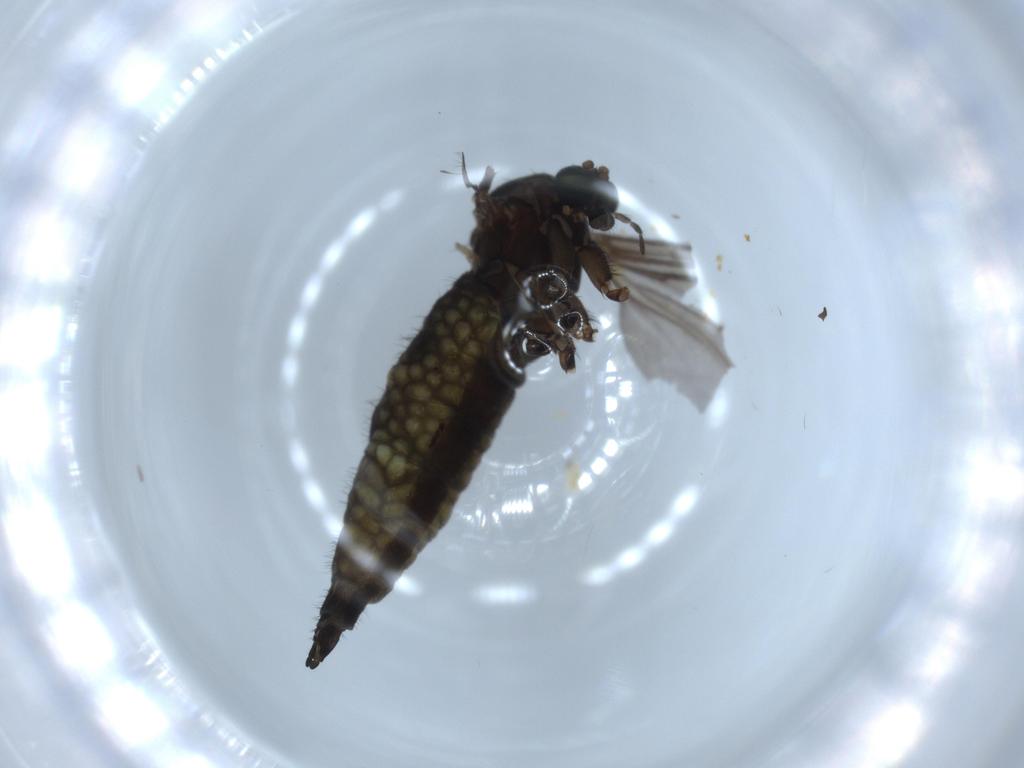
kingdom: Animalia
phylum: Arthropoda
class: Insecta
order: Diptera
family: Sciaridae
